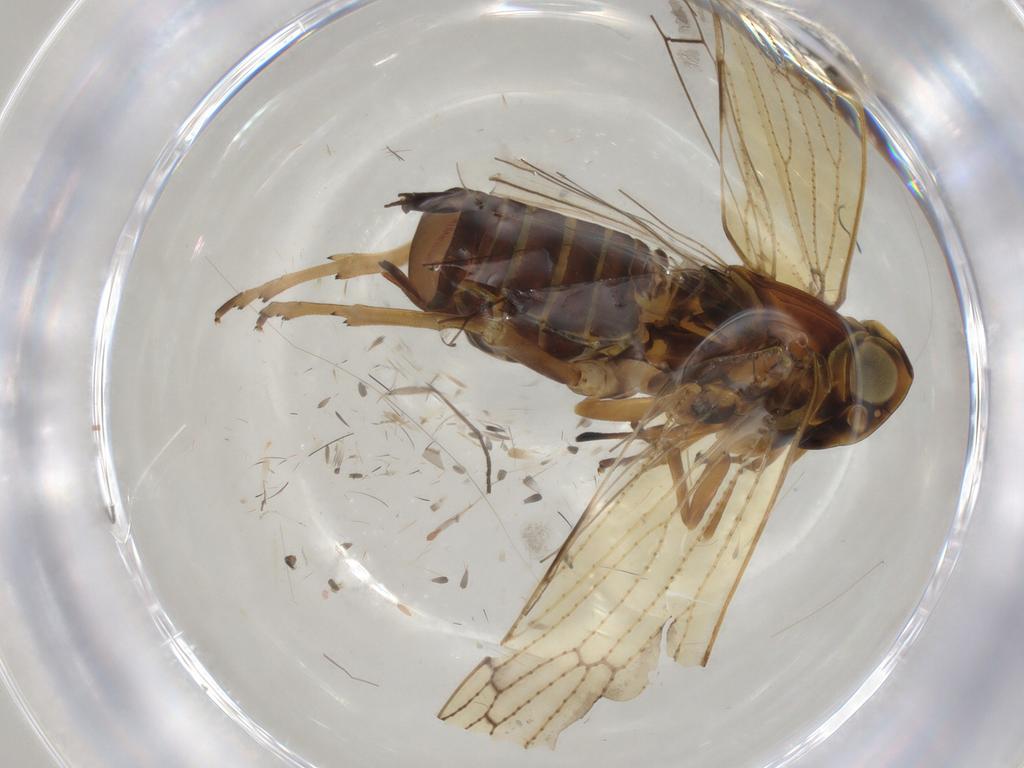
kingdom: Animalia
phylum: Arthropoda
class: Insecta
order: Hemiptera
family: Cixiidae
